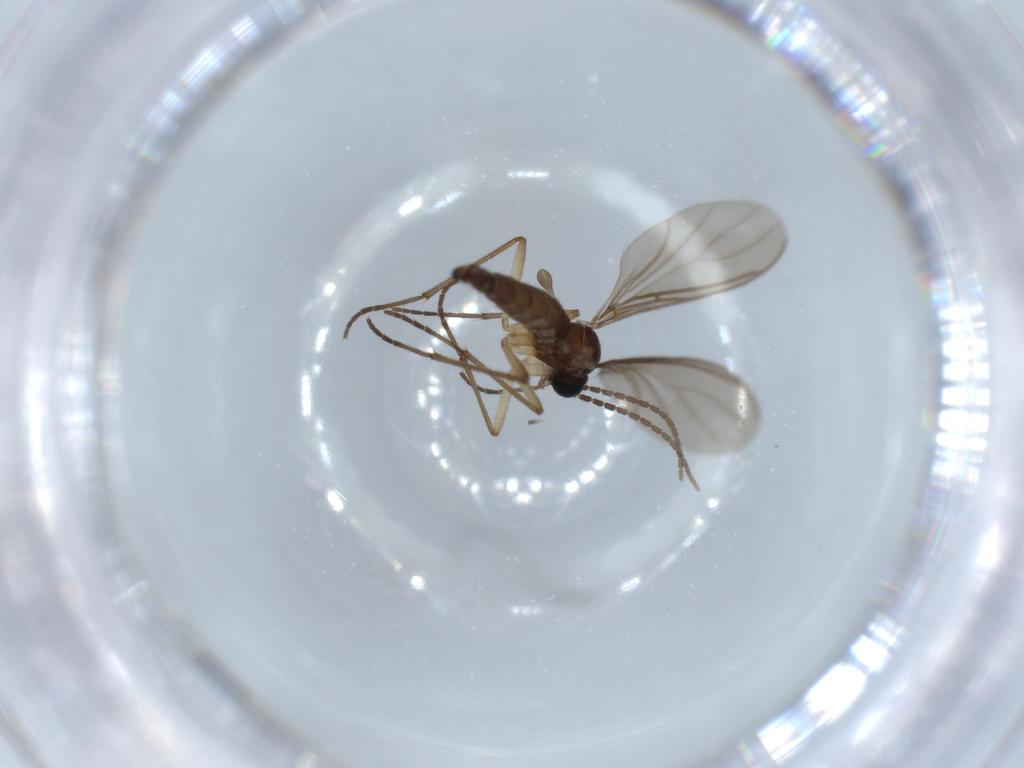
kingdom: Animalia
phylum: Arthropoda
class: Insecta
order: Diptera
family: Sciaridae
